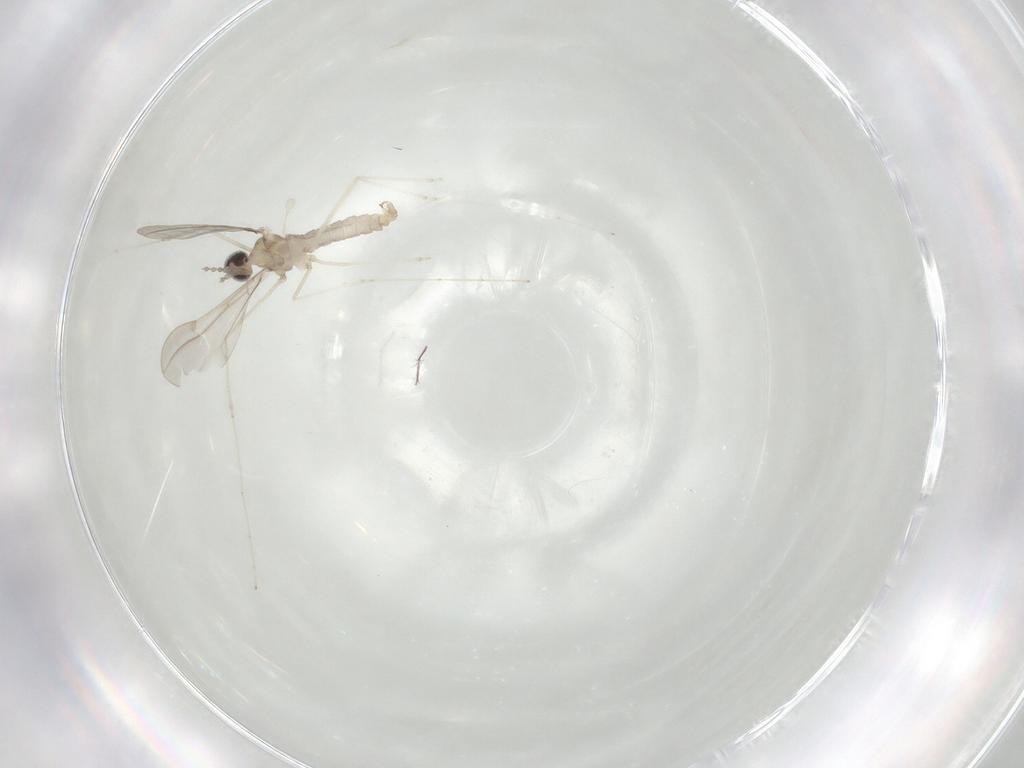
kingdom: Animalia
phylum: Arthropoda
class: Insecta
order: Diptera
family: Cecidomyiidae
